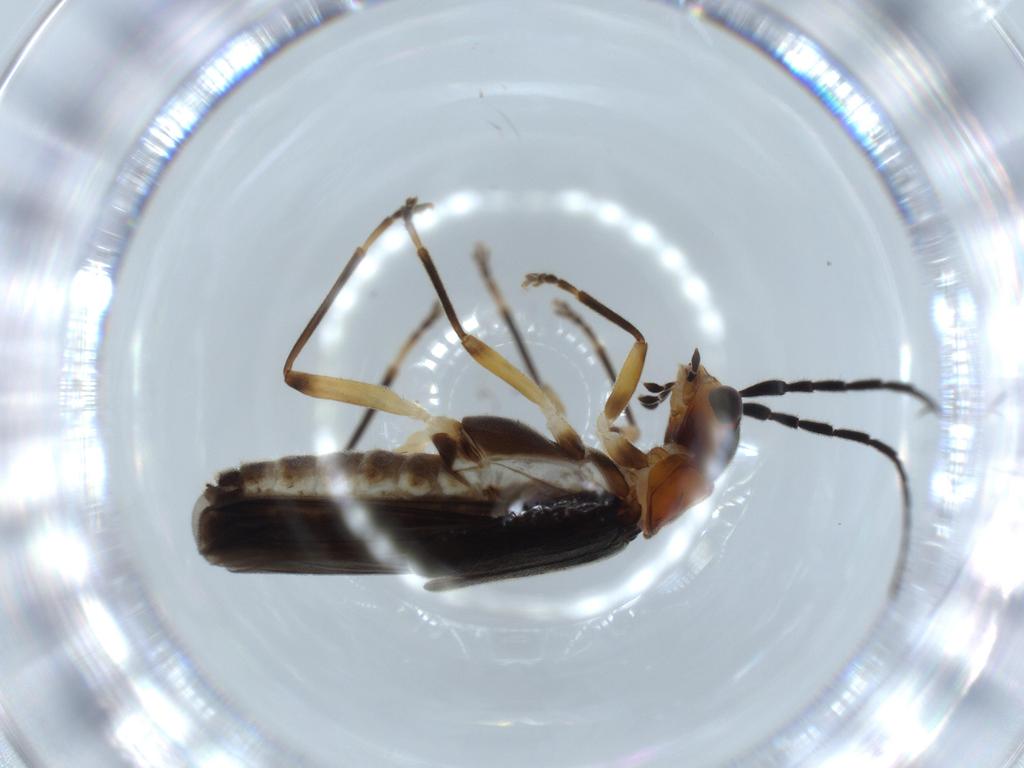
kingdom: Animalia
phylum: Arthropoda
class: Insecta
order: Coleoptera
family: Cantharidae
